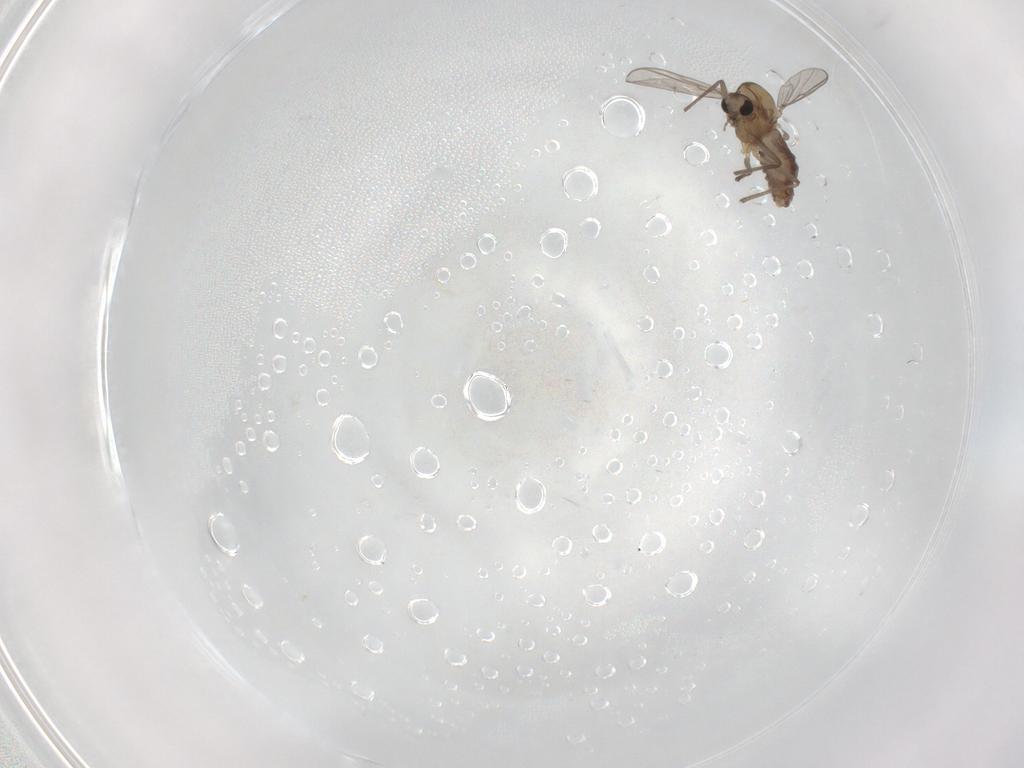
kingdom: Animalia
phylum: Arthropoda
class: Insecta
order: Diptera
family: Chironomidae
